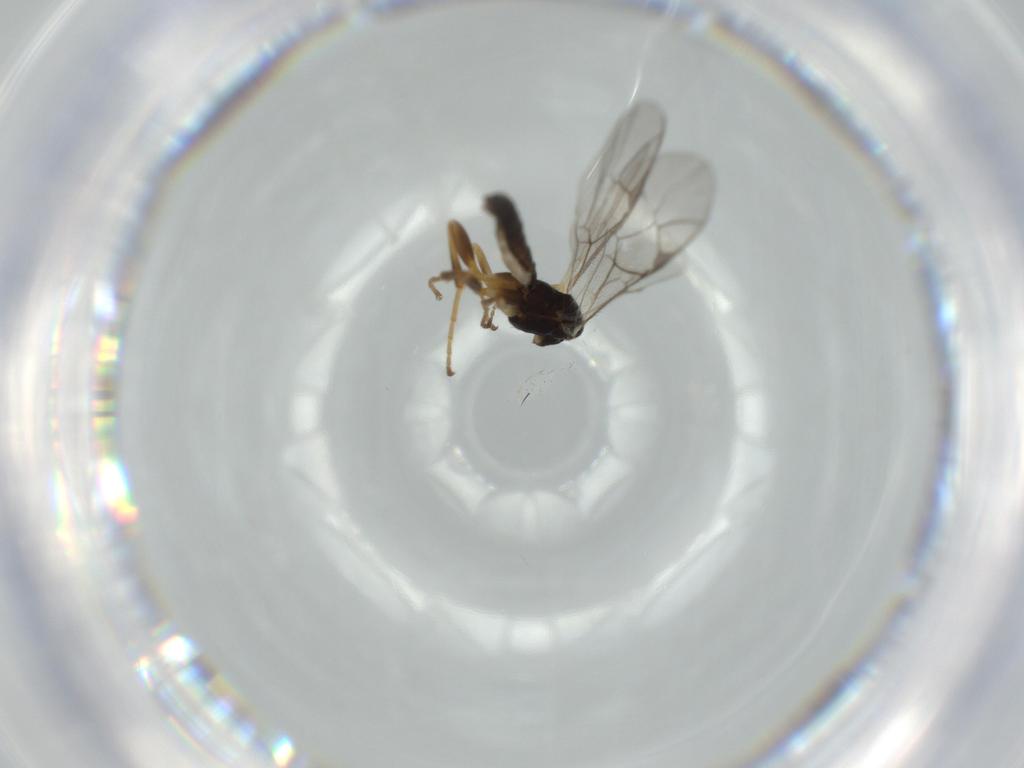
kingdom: Animalia
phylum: Arthropoda
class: Insecta
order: Hymenoptera
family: Ichneumonidae
